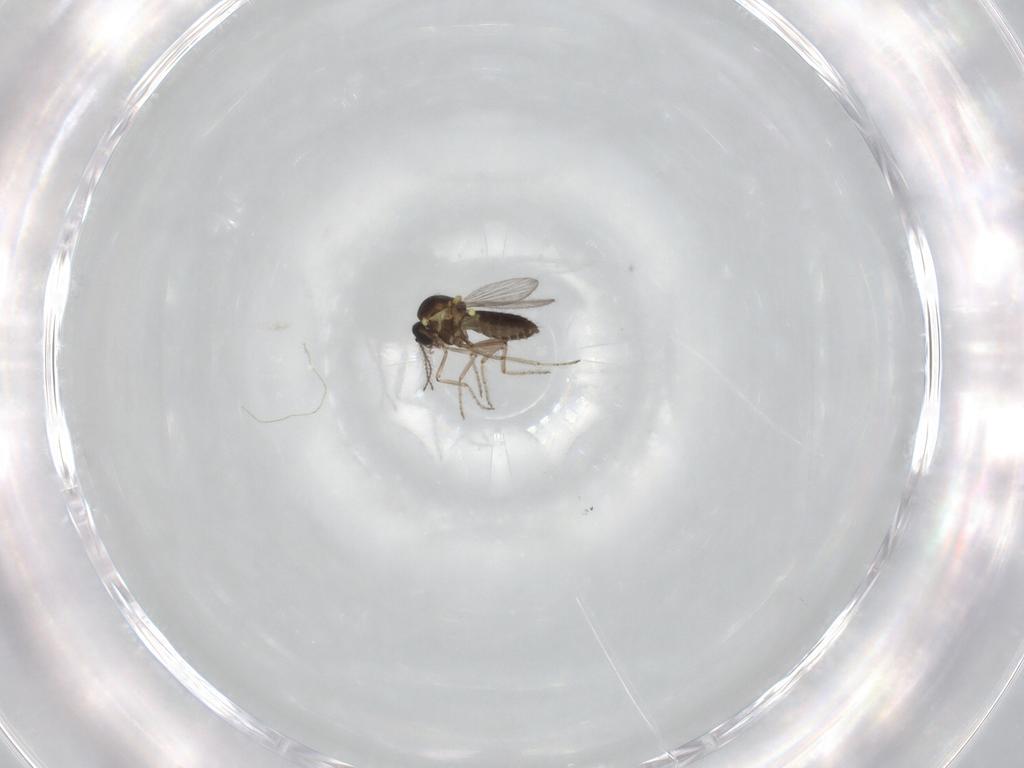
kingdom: Animalia
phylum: Arthropoda
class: Insecta
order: Diptera
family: Ceratopogonidae
